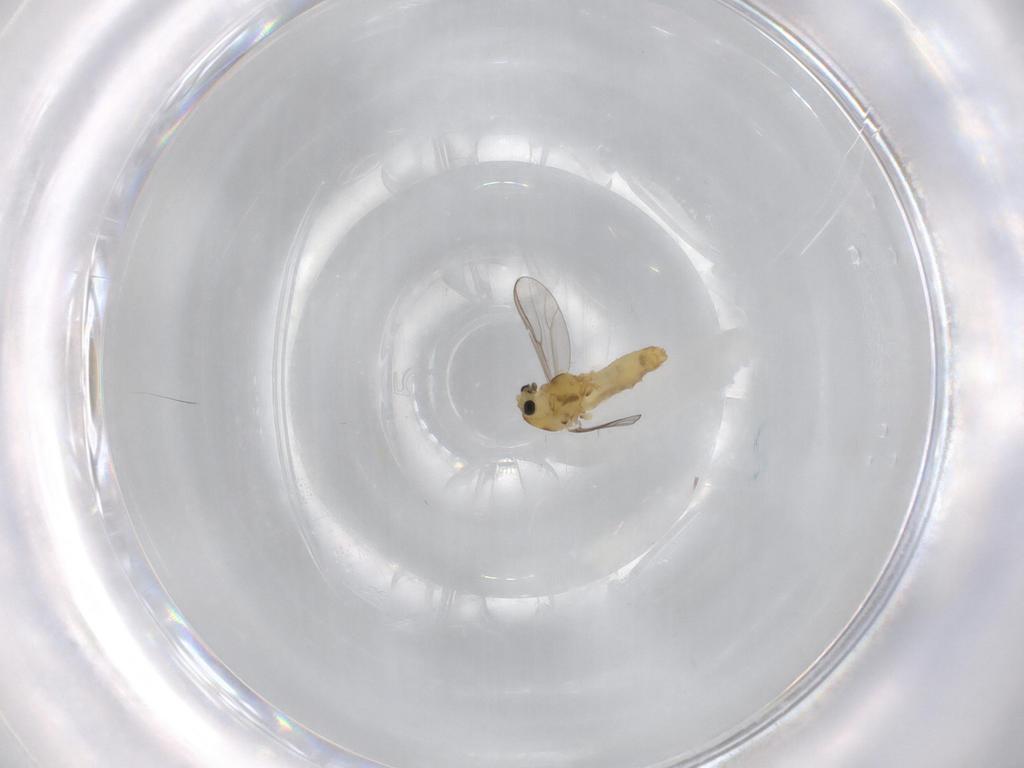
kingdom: Animalia
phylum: Arthropoda
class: Insecta
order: Diptera
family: Chironomidae
